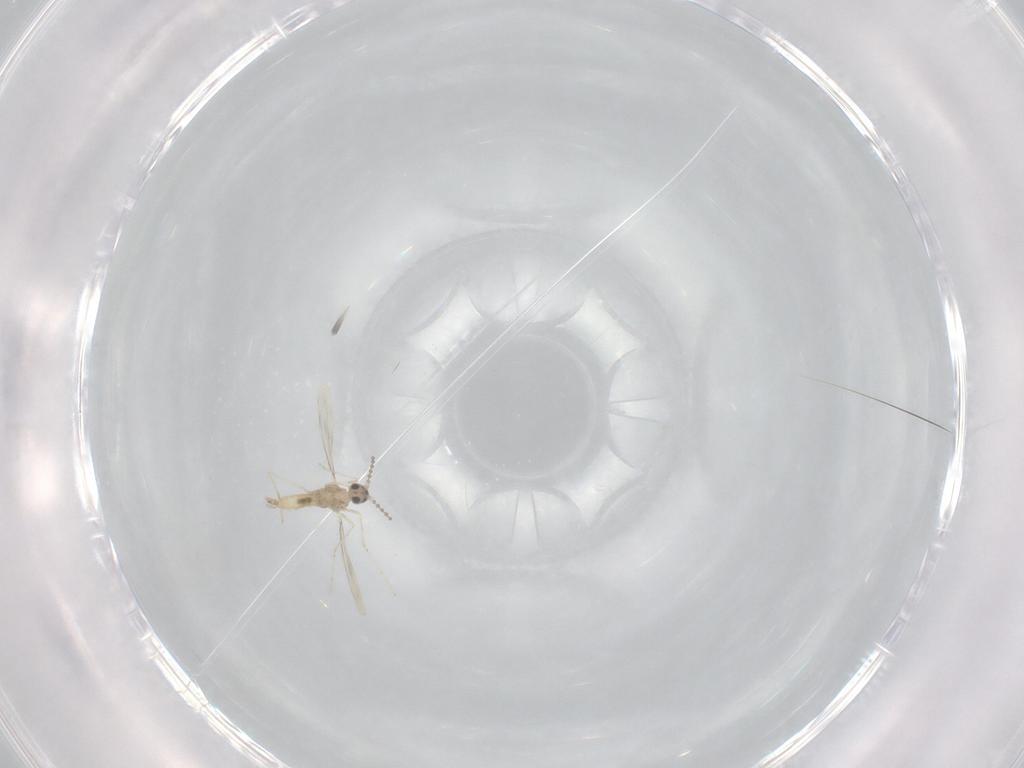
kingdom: Animalia
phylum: Arthropoda
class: Insecta
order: Diptera
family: Cecidomyiidae
